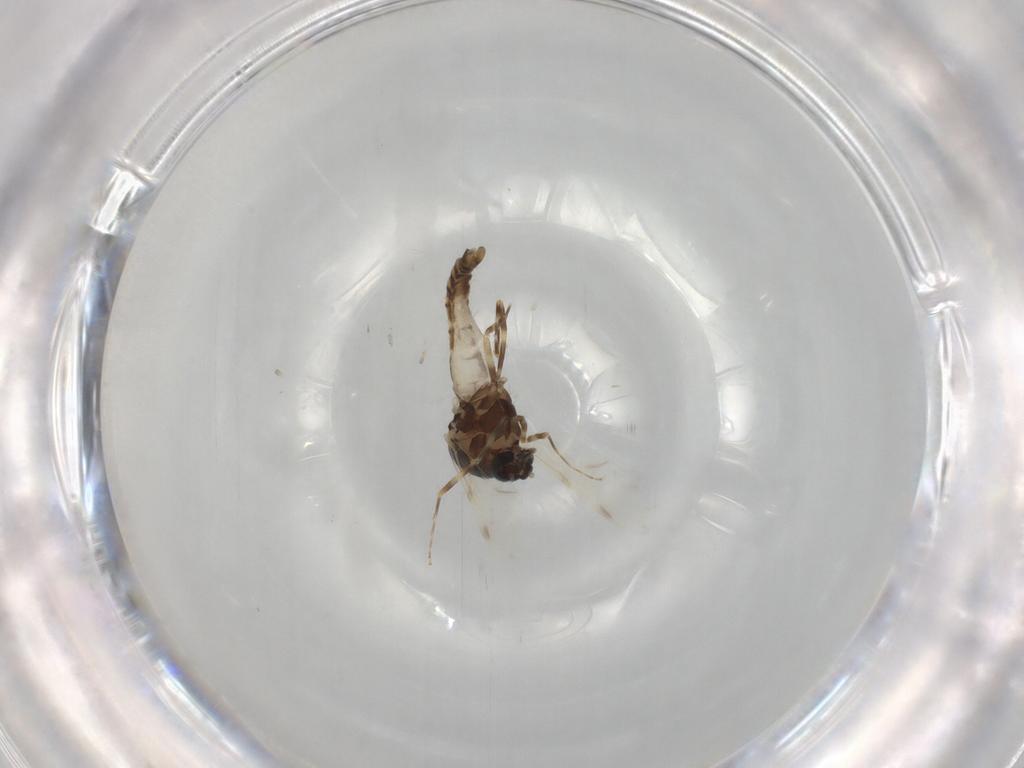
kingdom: Animalia
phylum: Arthropoda
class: Insecta
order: Diptera
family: Ceratopogonidae
